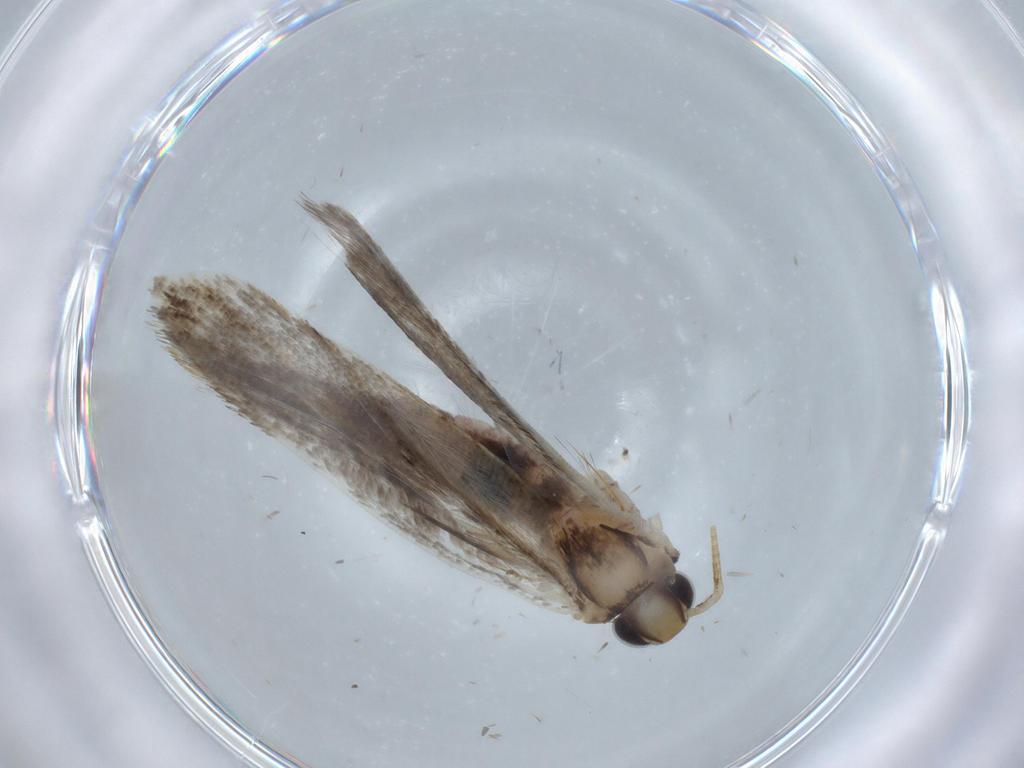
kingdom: Animalia
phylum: Arthropoda
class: Insecta
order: Lepidoptera
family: Gelechiidae
